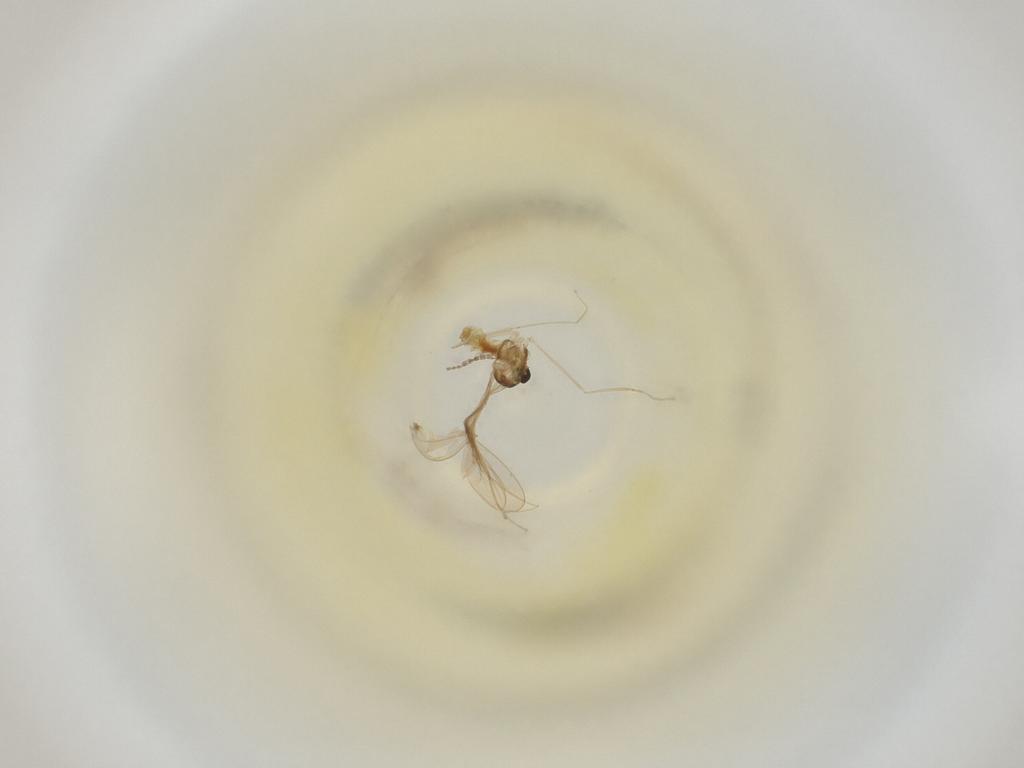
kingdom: Animalia
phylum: Arthropoda
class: Insecta
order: Diptera
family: Cecidomyiidae
